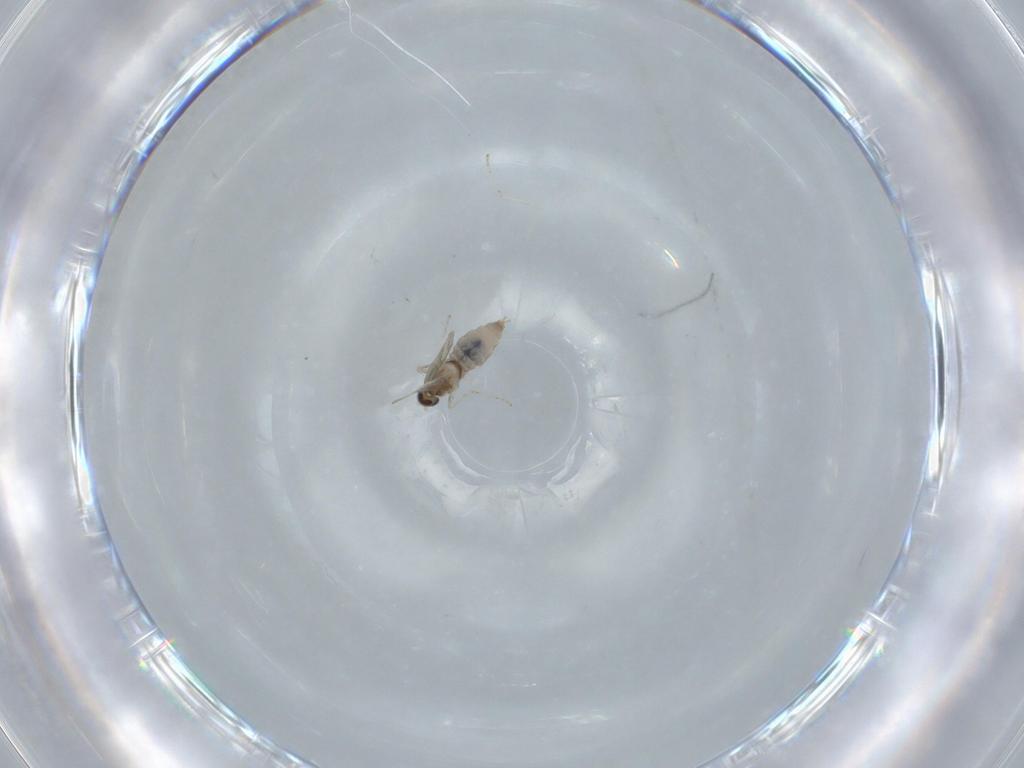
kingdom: Animalia
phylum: Arthropoda
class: Insecta
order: Diptera
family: Cecidomyiidae
